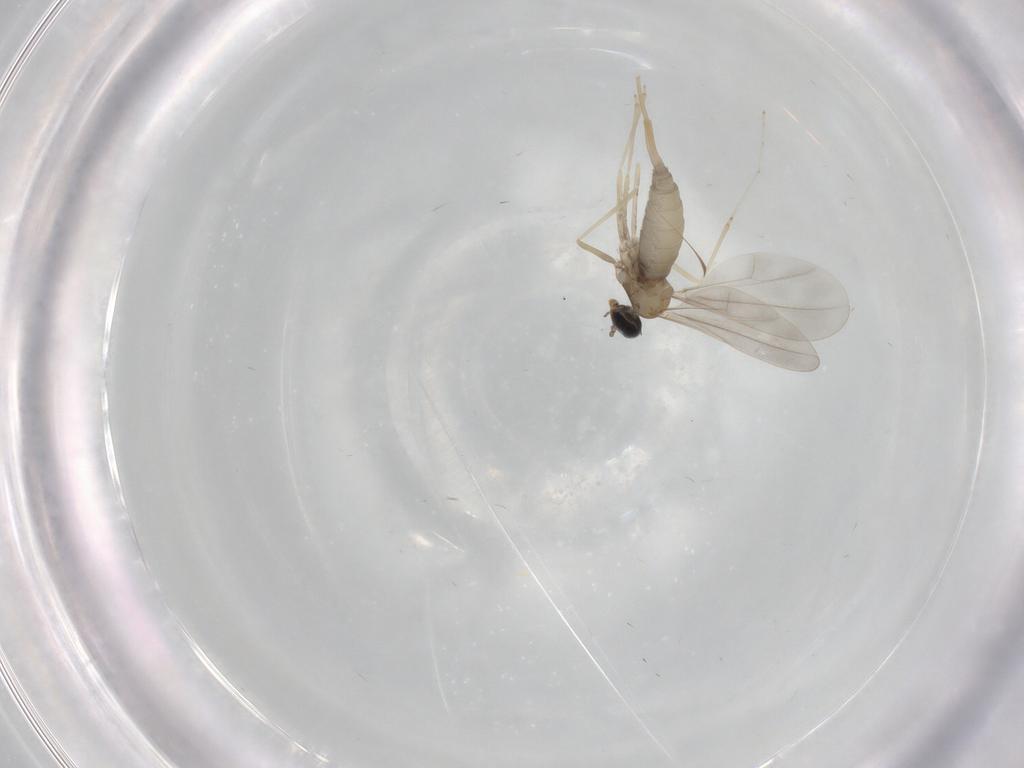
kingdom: Animalia
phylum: Arthropoda
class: Insecta
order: Diptera
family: Cecidomyiidae
